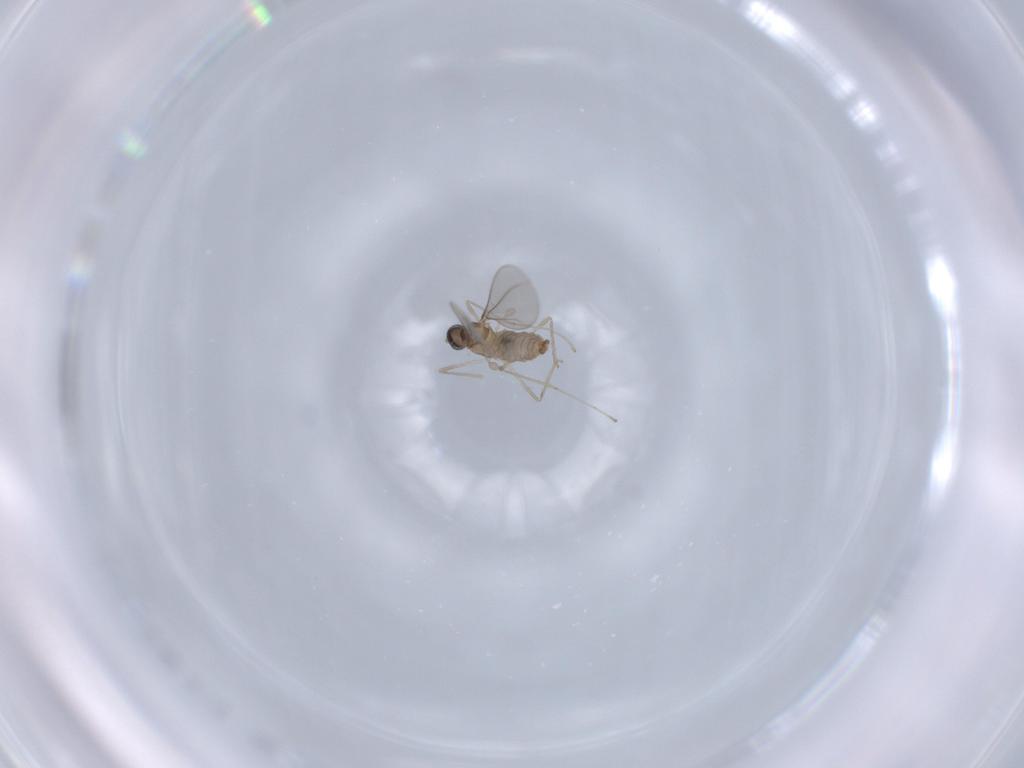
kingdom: Animalia
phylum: Arthropoda
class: Insecta
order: Diptera
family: Cecidomyiidae
